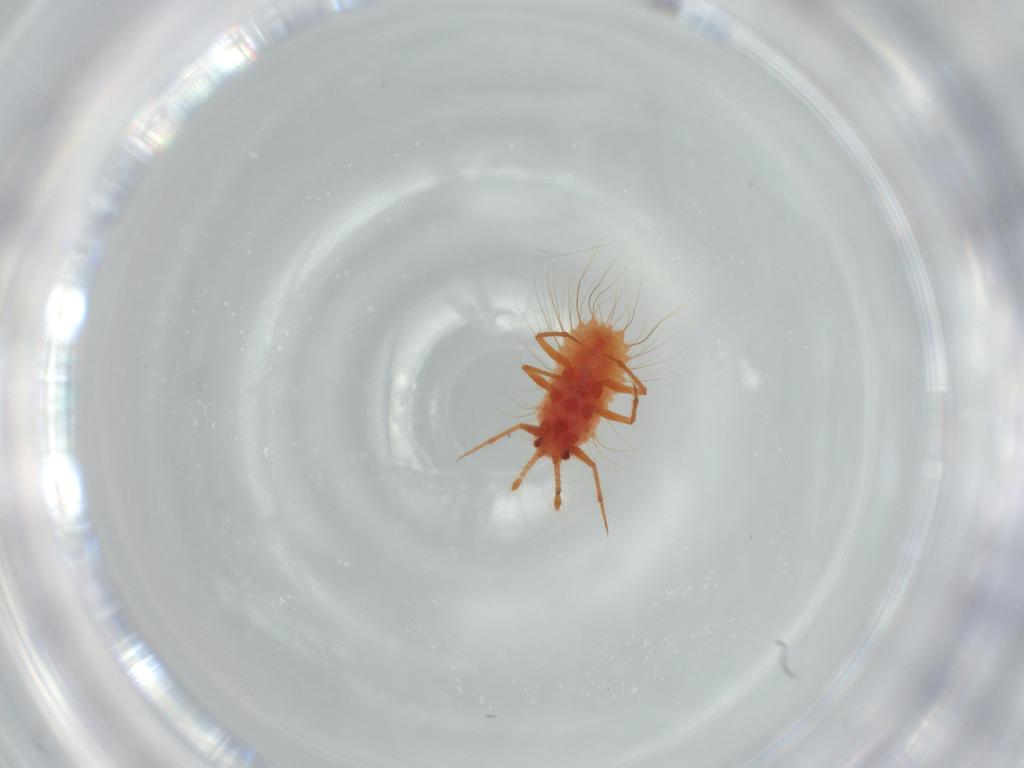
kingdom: Animalia
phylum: Arthropoda
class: Insecta
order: Hemiptera
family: Monophlebidae
